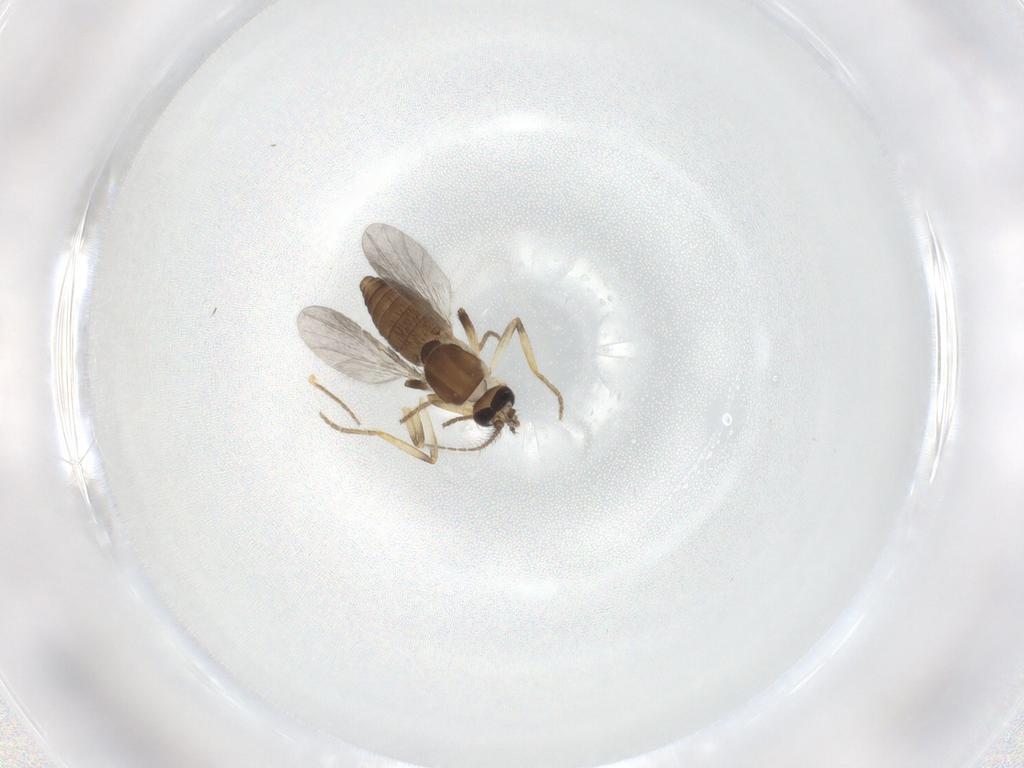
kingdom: Animalia
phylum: Arthropoda
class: Insecta
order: Diptera
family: Ceratopogonidae
